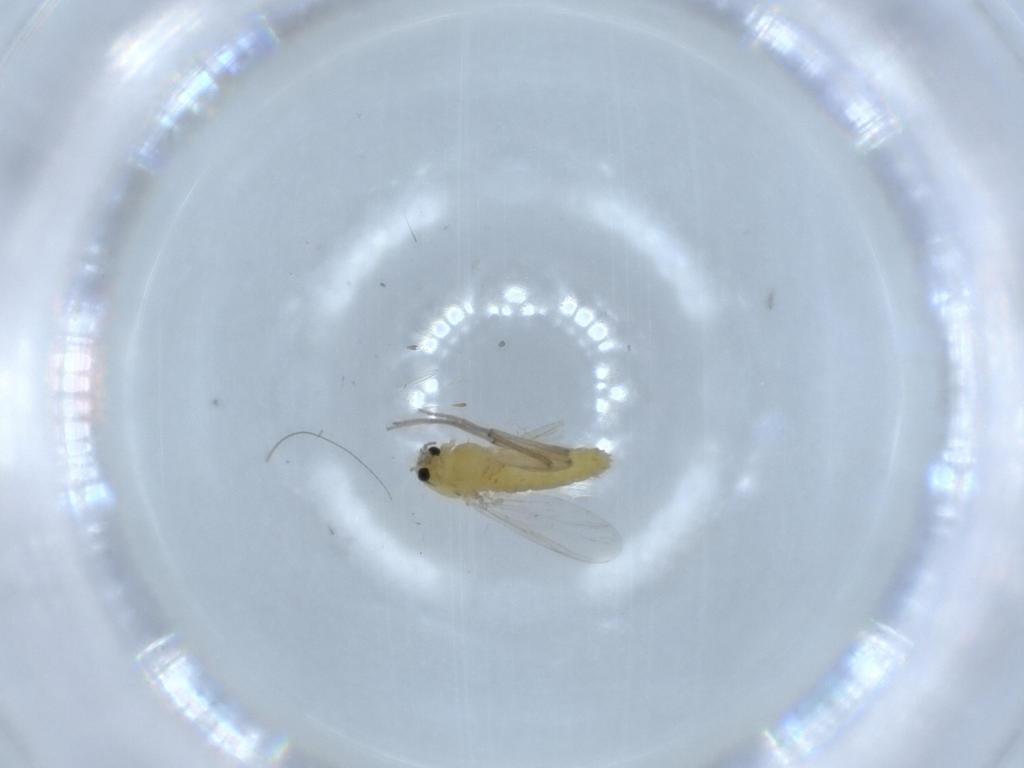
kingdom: Animalia
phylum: Arthropoda
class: Insecta
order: Diptera
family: Chironomidae
